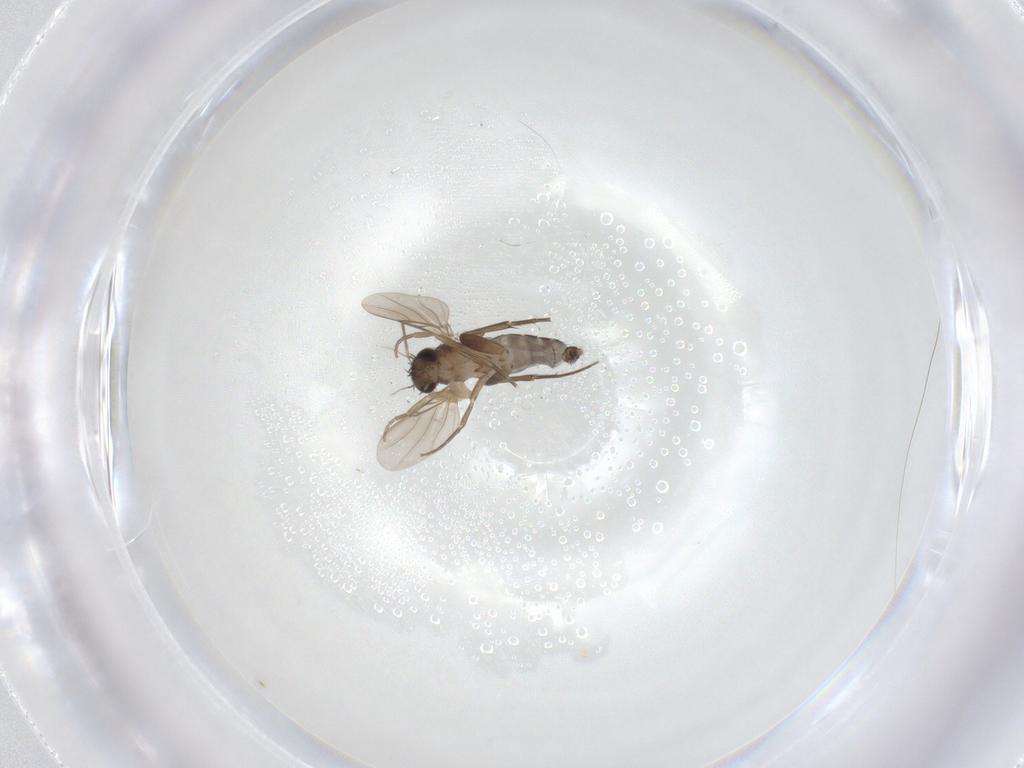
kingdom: Animalia
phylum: Arthropoda
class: Insecta
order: Diptera
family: Phoridae
